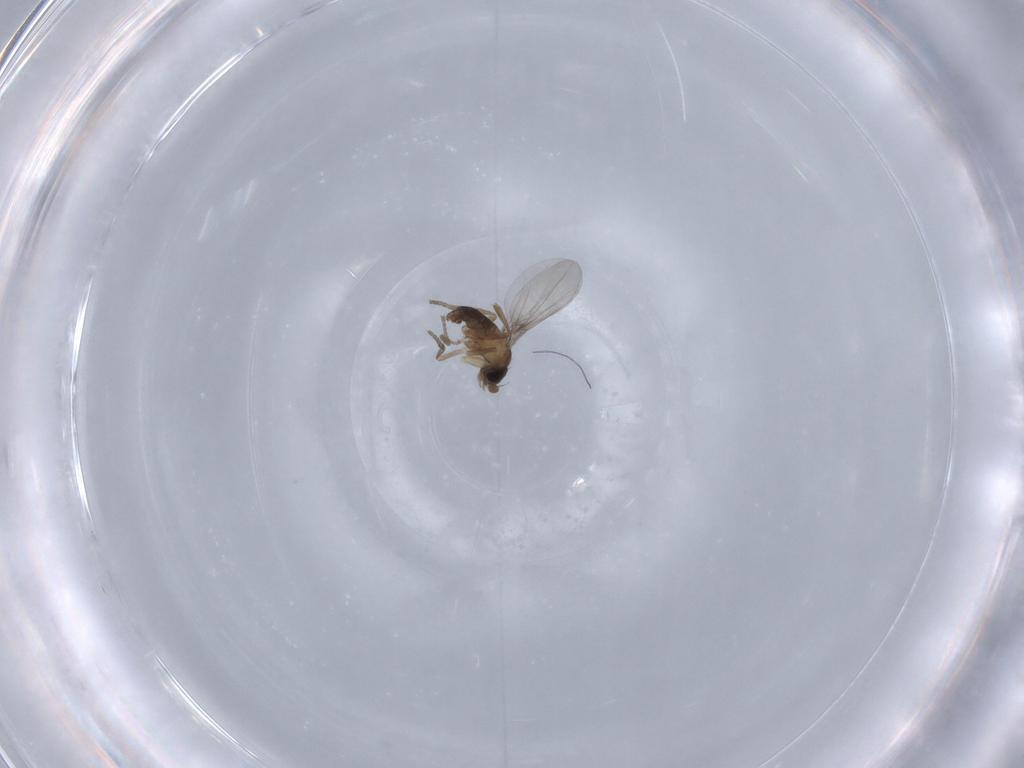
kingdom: Animalia
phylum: Arthropoda
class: Insecta
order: Diptera
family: Phoridae
